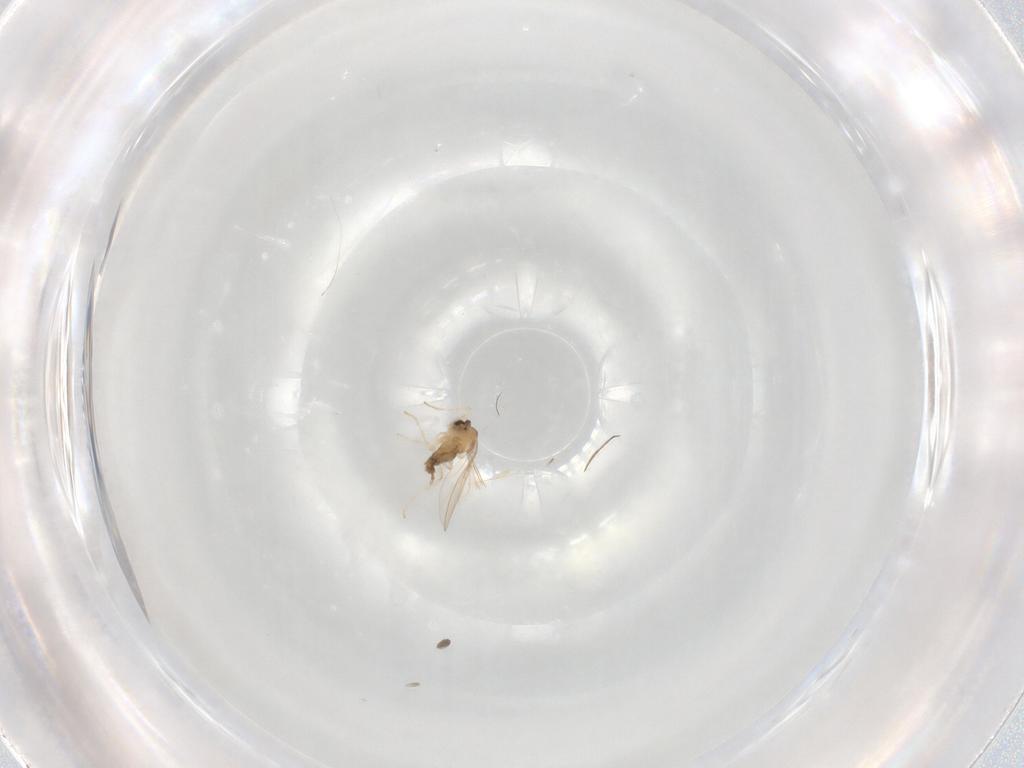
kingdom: Animalia
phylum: Arthropoda
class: Insecta
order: Diptera
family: Cecidomyiidae
